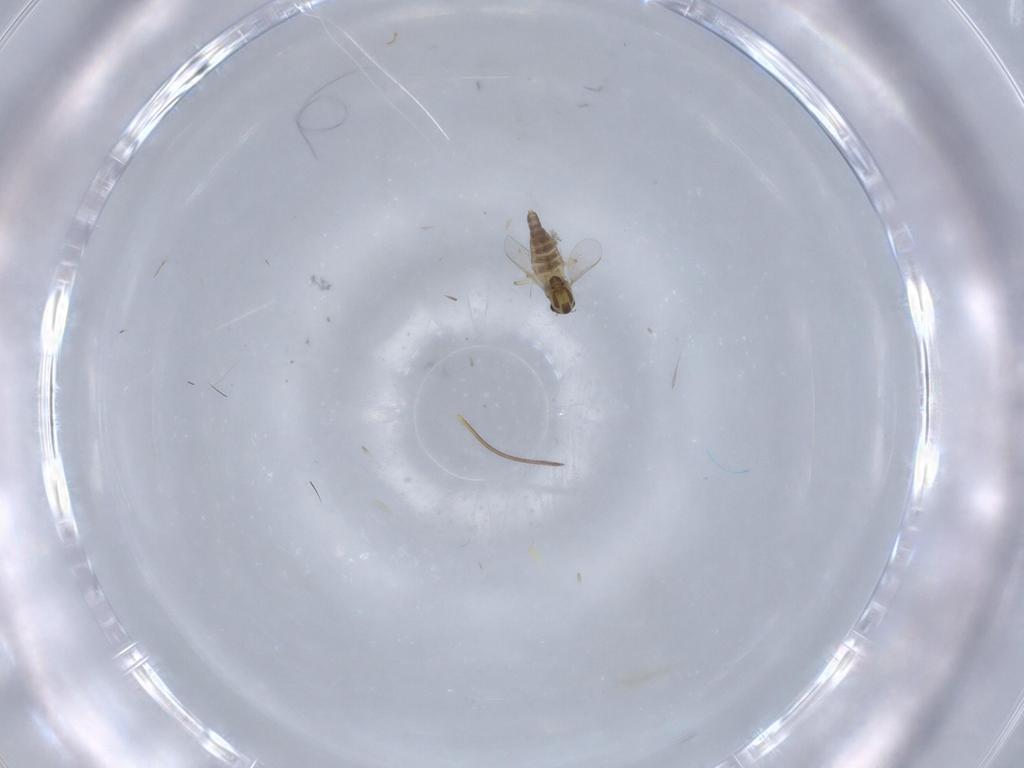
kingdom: Animalia
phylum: Arthropoda
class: Insecta
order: Diptera
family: Chironomidae
